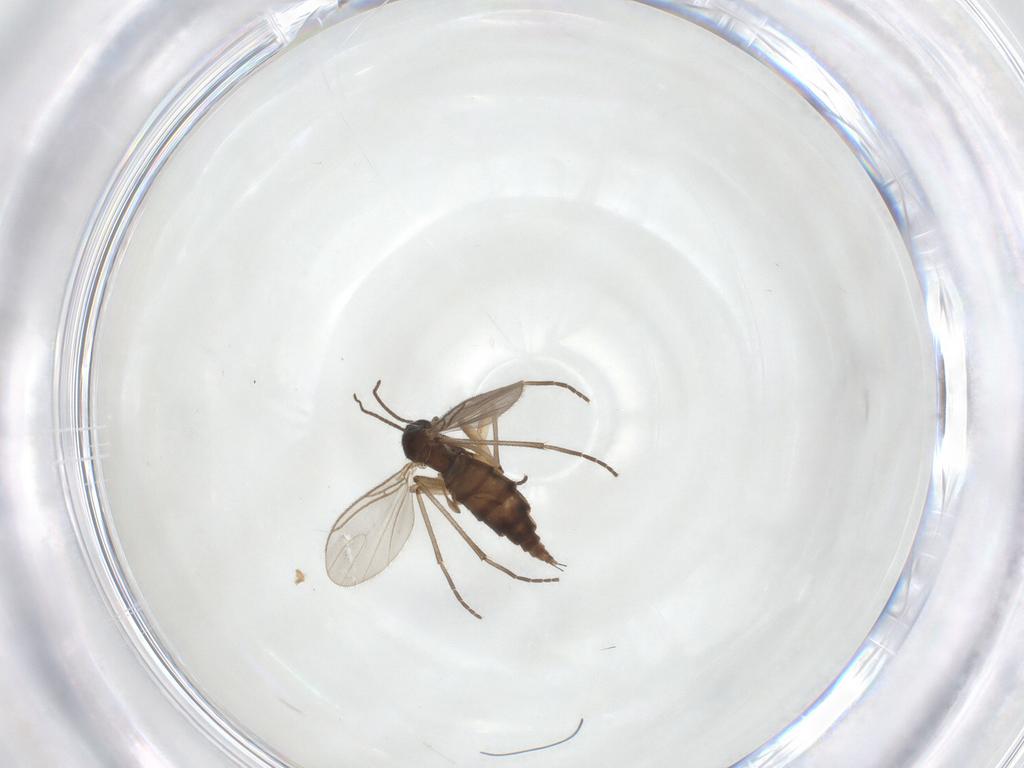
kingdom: Animalia
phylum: Arthropoda
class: Insecta
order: Diptera
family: Sciaridae
